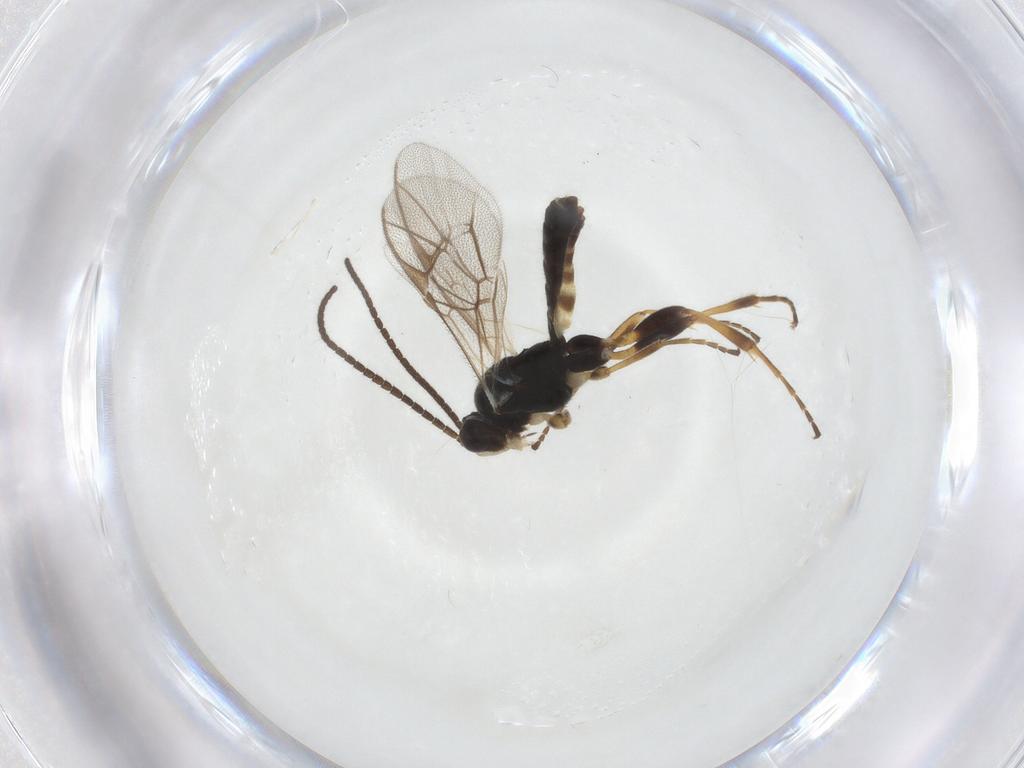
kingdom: Animalia
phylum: Arthropoda
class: Insecta
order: Hymenoptera
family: Ichneumonidae
